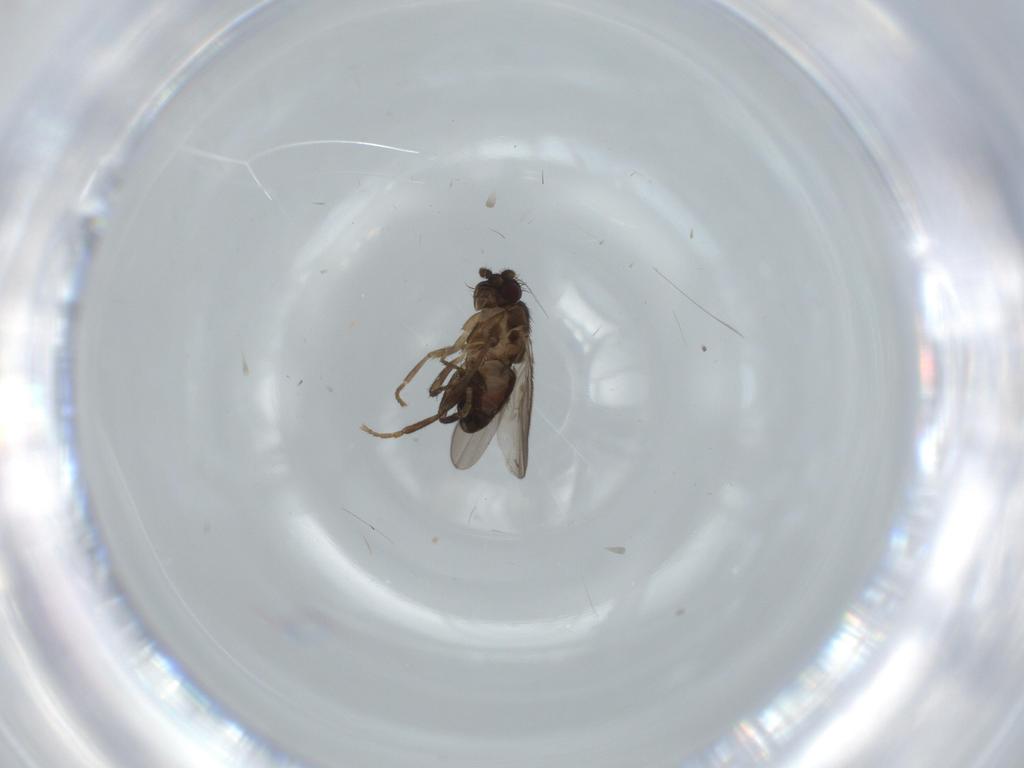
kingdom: Animalia
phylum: Arthropoda
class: Insecta
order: Diptera
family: Sphaeroceridae
